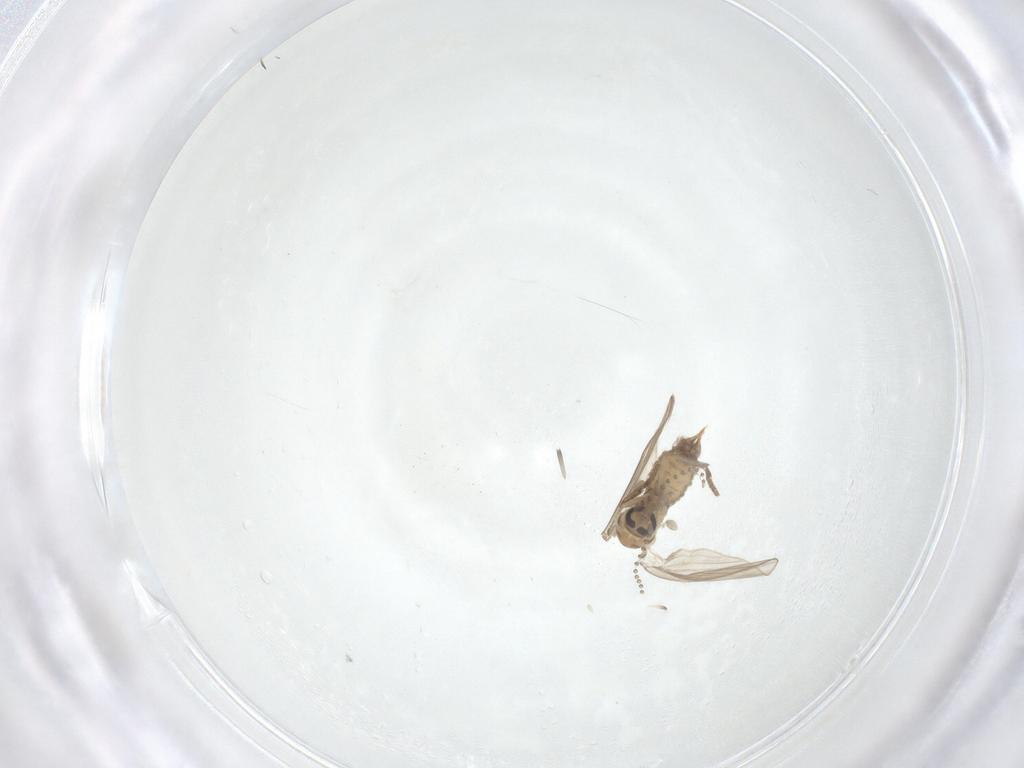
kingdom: Animalia
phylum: Arthropoda
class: Insecta
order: Diptera
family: Psychodidae
